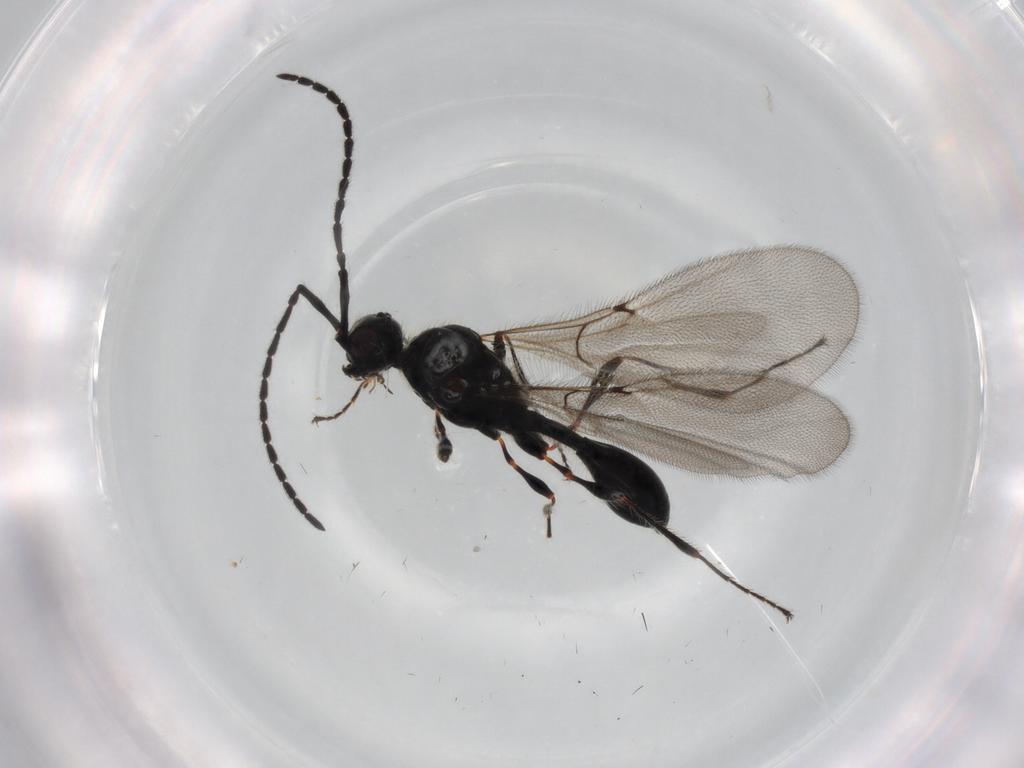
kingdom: Animalia
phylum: Arthropoda
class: Insecta
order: Hymenoptera
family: Diapriidae
